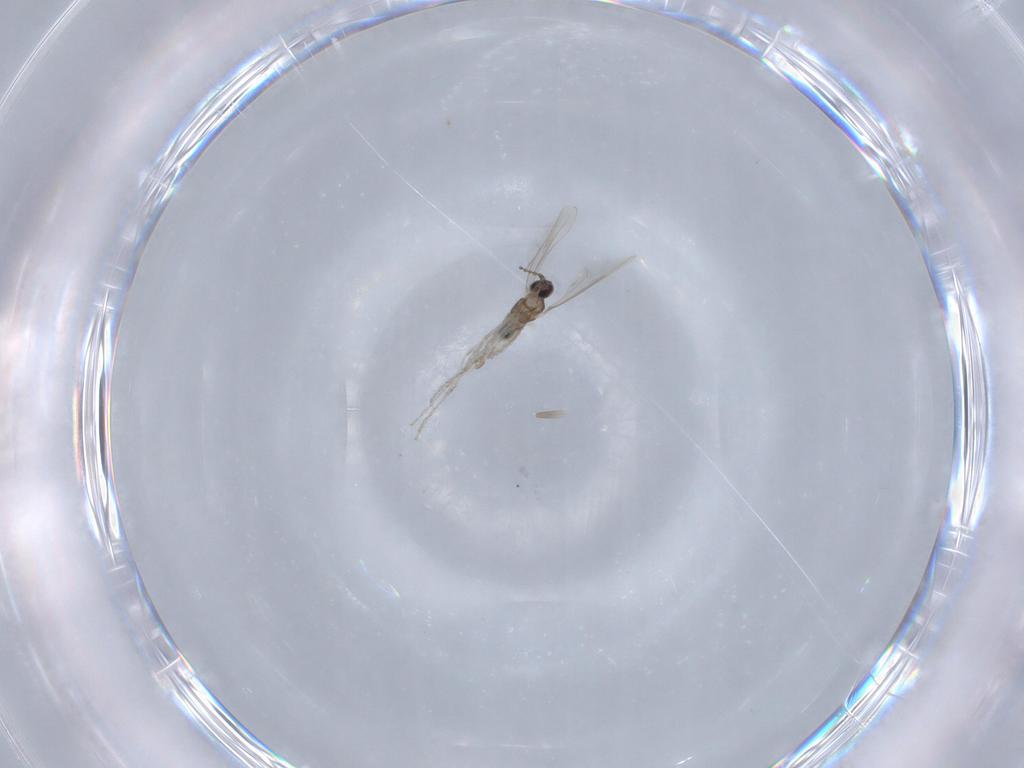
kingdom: Animalia
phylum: Arthropoda
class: Insecta
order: Diptera
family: Cecidomyiidae
